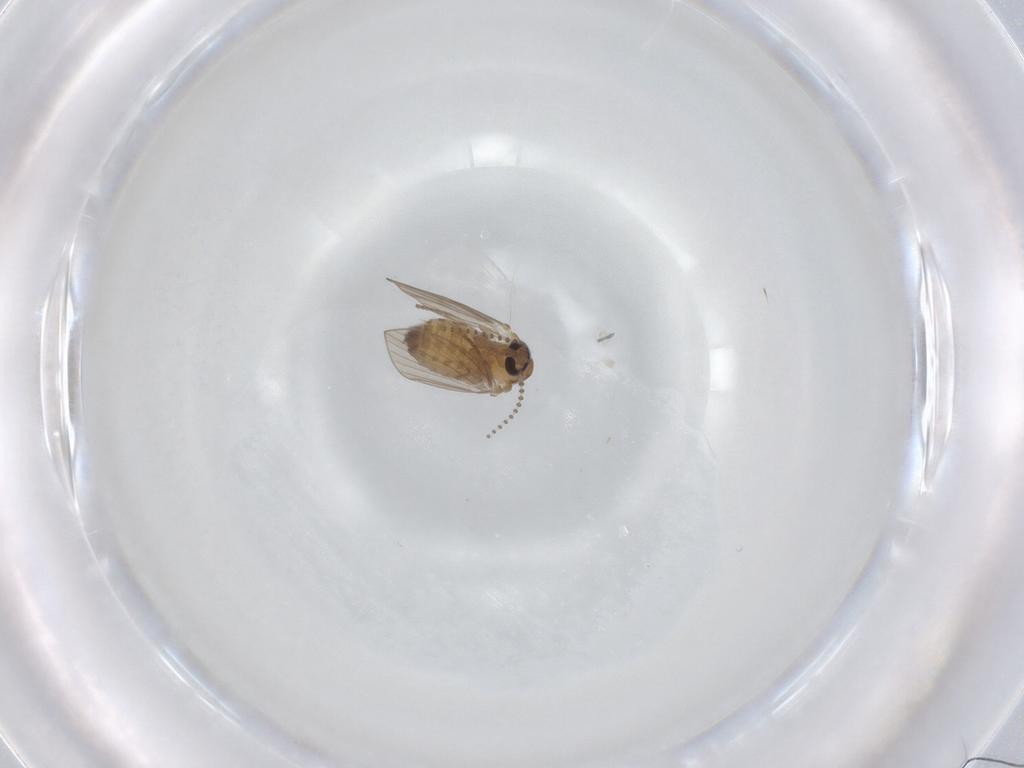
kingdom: Animalia
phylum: Arthropoda
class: Insecta
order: Diptera
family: Psychodidae
